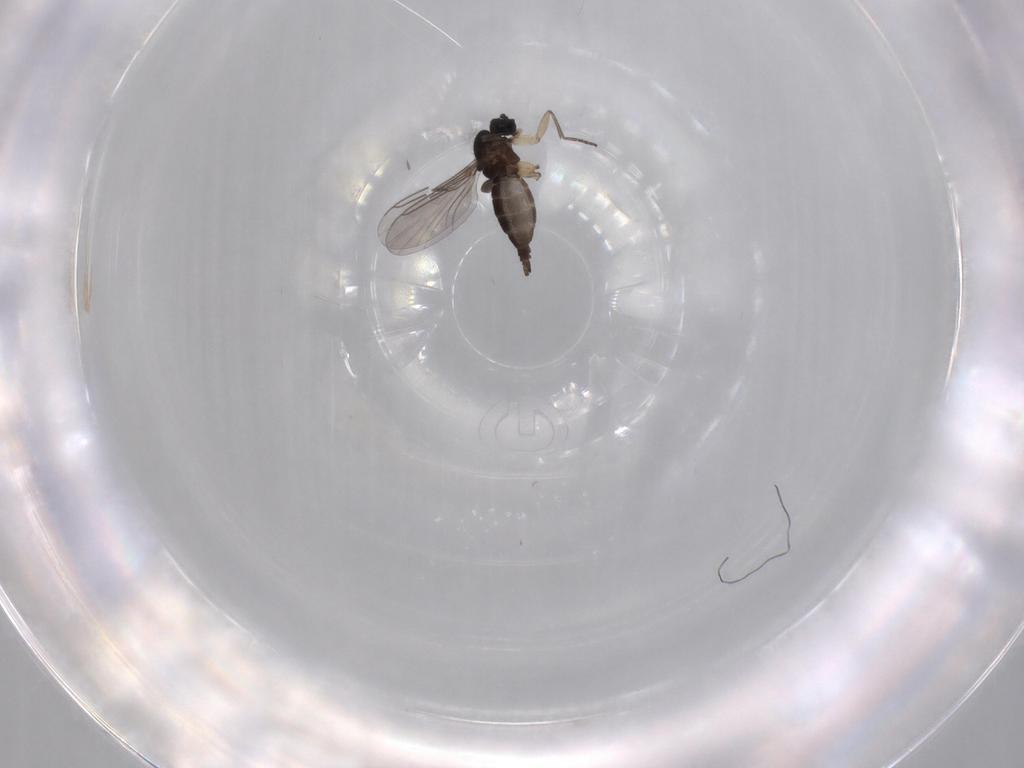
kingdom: Animalia
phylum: Arthropoda
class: Insecta
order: Diptera
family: Sciaridae
